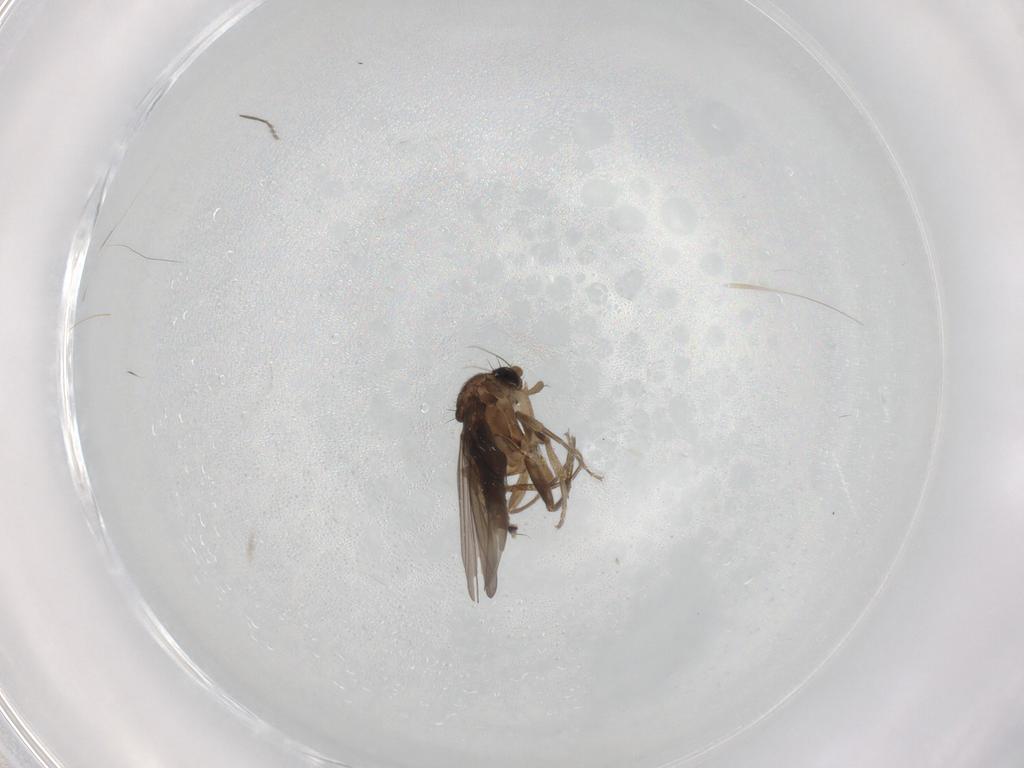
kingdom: Animalia
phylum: Arthropoda
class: Insecta
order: Diptera
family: Phoridae
